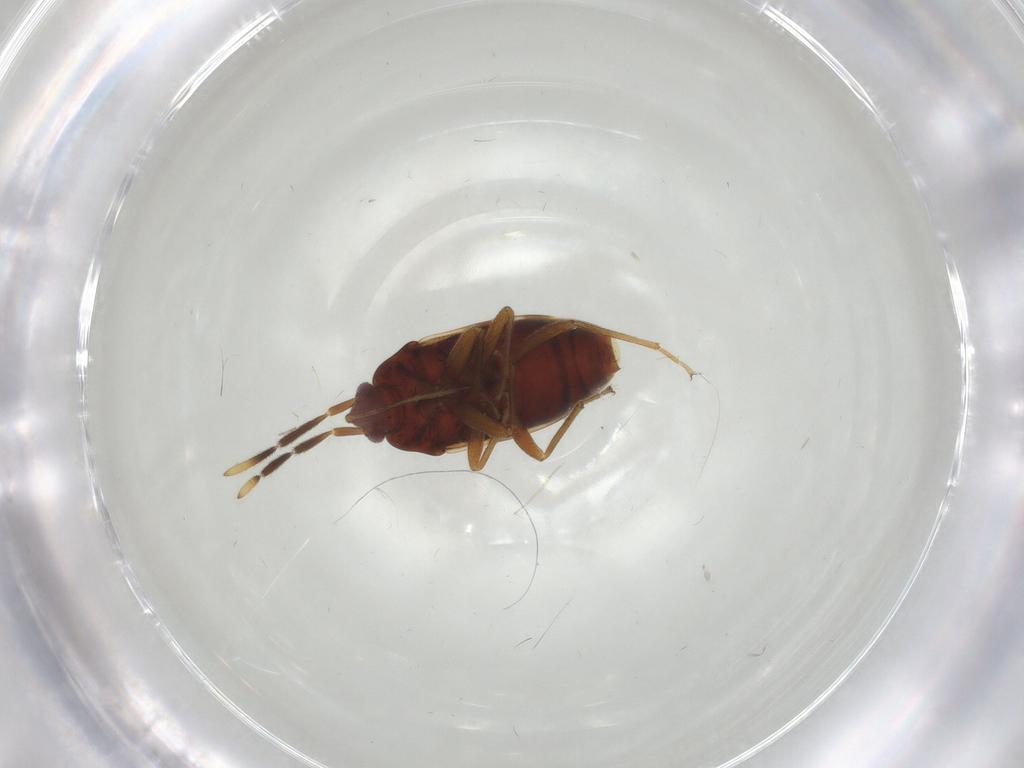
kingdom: Animalia
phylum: Arthropoda
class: Insecta
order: Hemiptera
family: Rhyparochromidae
